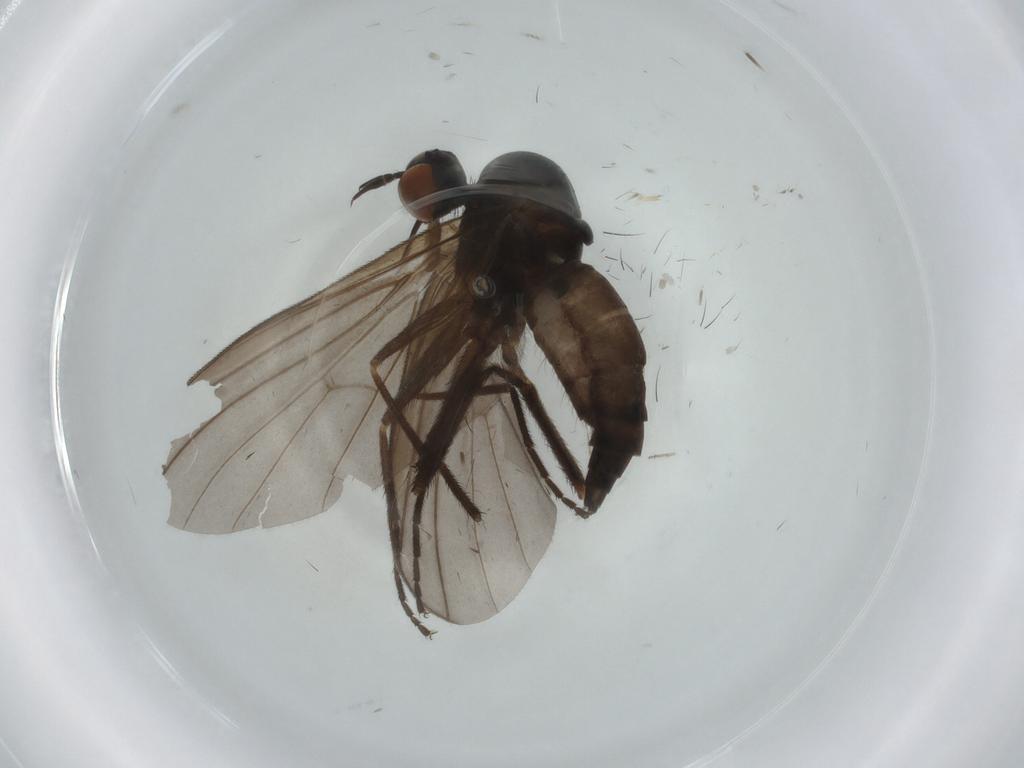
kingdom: Animalia
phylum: Arthropoda
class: Insecta
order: Diptera
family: Empididae
